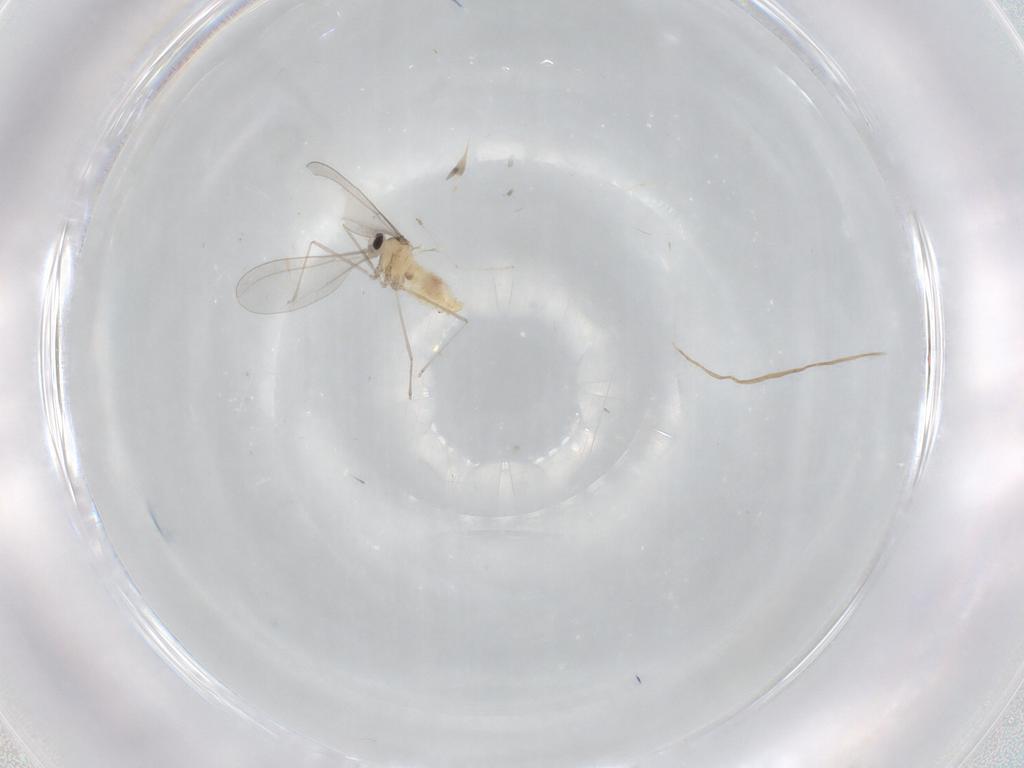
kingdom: Animalia
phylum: Arthropoda
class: Insecta
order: Diptera
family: Cecidomyiidae
